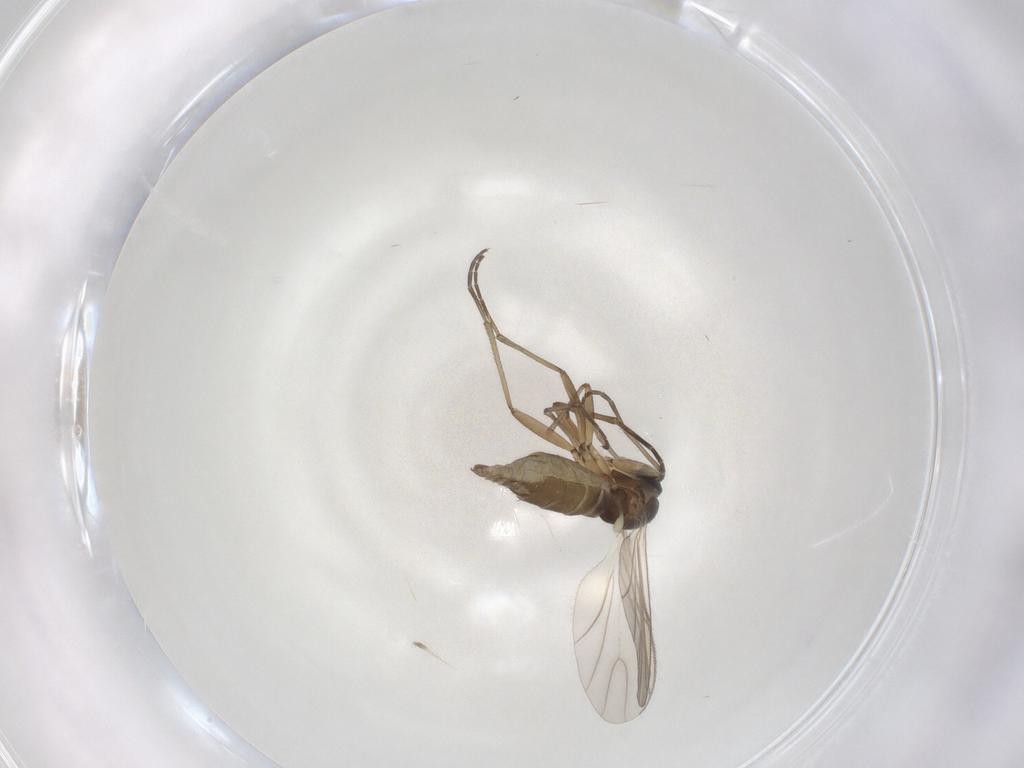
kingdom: Animalia
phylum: Arthropoda
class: Insecta
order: Diptera
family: Sciaridae
